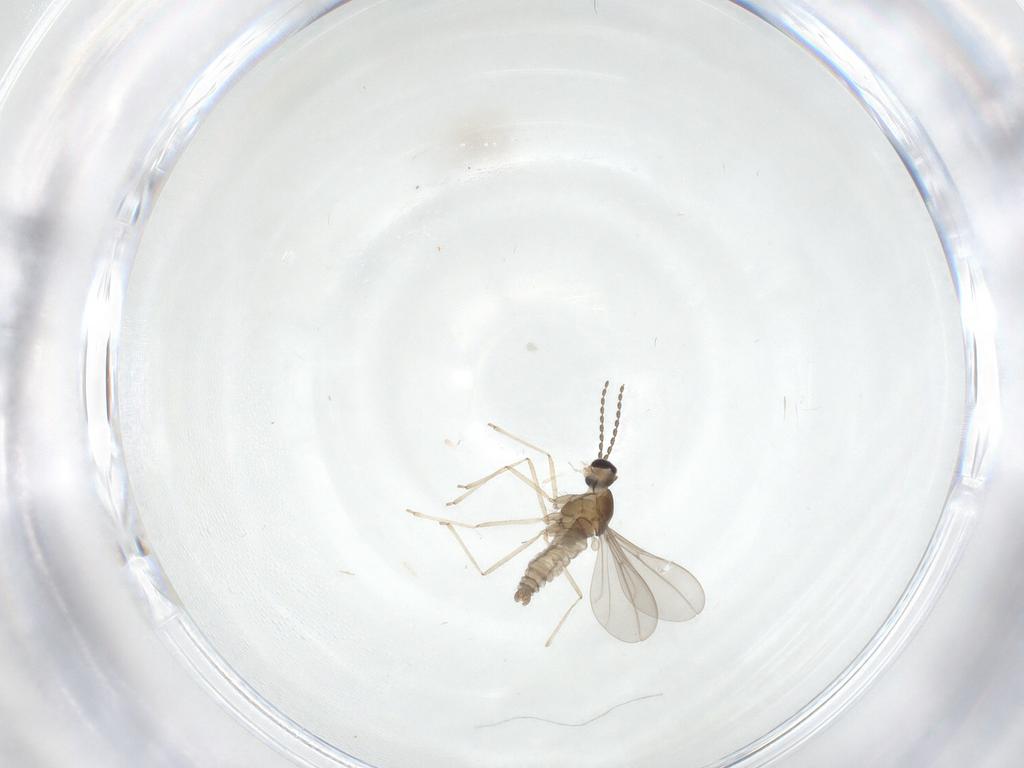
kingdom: Animalia
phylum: Arthropoda
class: Insecta
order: Diptera
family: Cecidomyiidae
